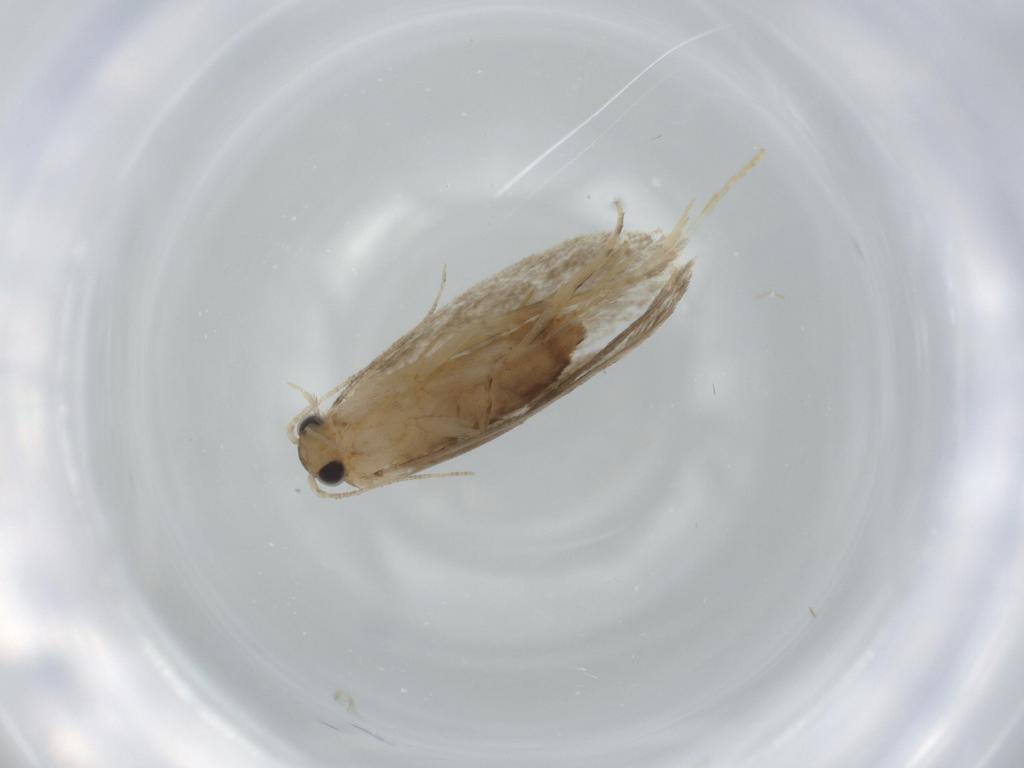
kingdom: Animalia
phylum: Arthropoda
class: Insecta
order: Lepidoptera
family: Tineidae
